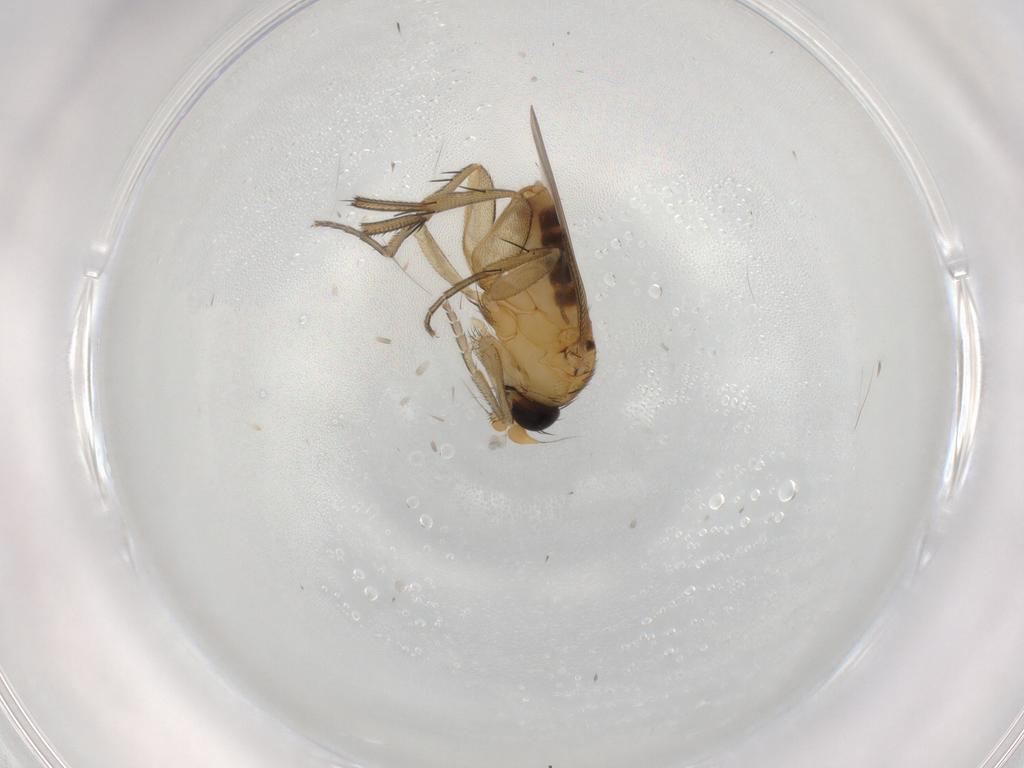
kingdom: Animalia
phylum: Arthropoda
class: Insecta
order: Diptera
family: Phoridae
